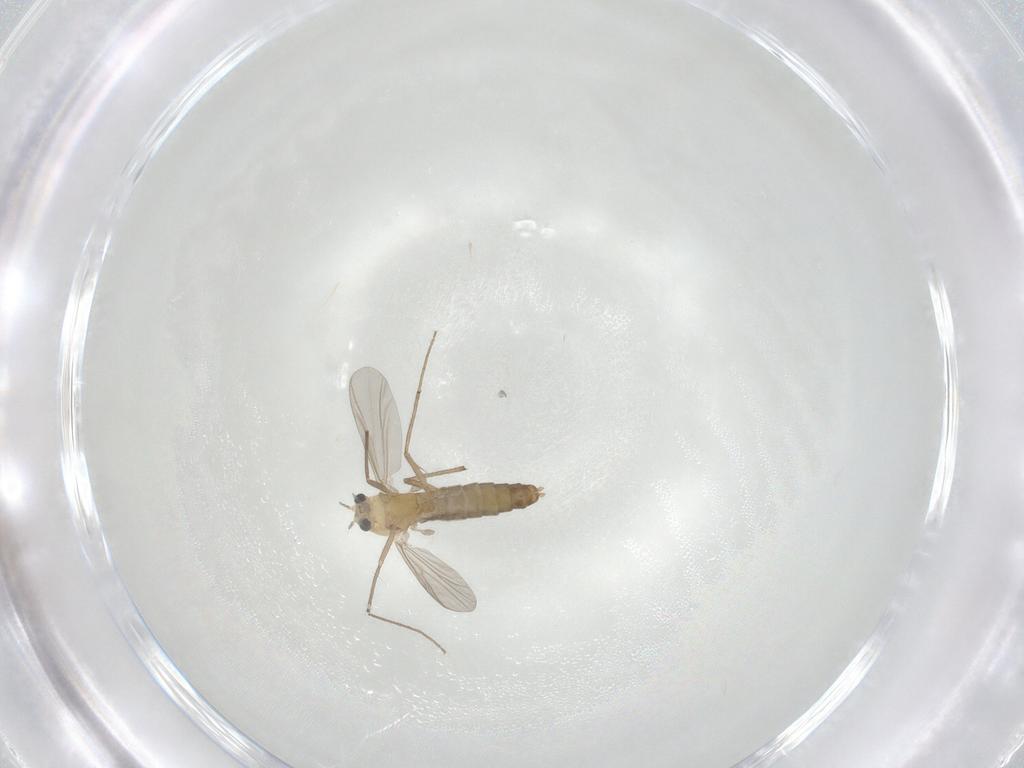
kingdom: Animalia
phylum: Arthropoda
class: Insecta
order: Diptera
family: Chironomidae
